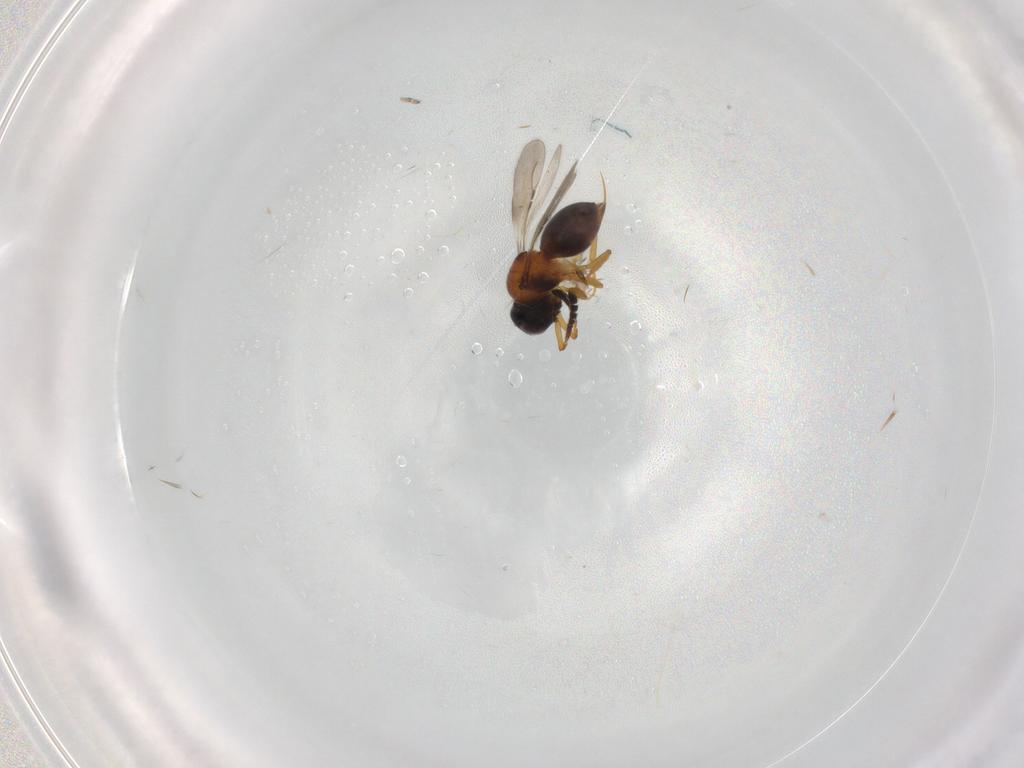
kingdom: Animalia
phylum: Arthropoda
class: Insecta
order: Hymenoptera
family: Ceraphronidae
